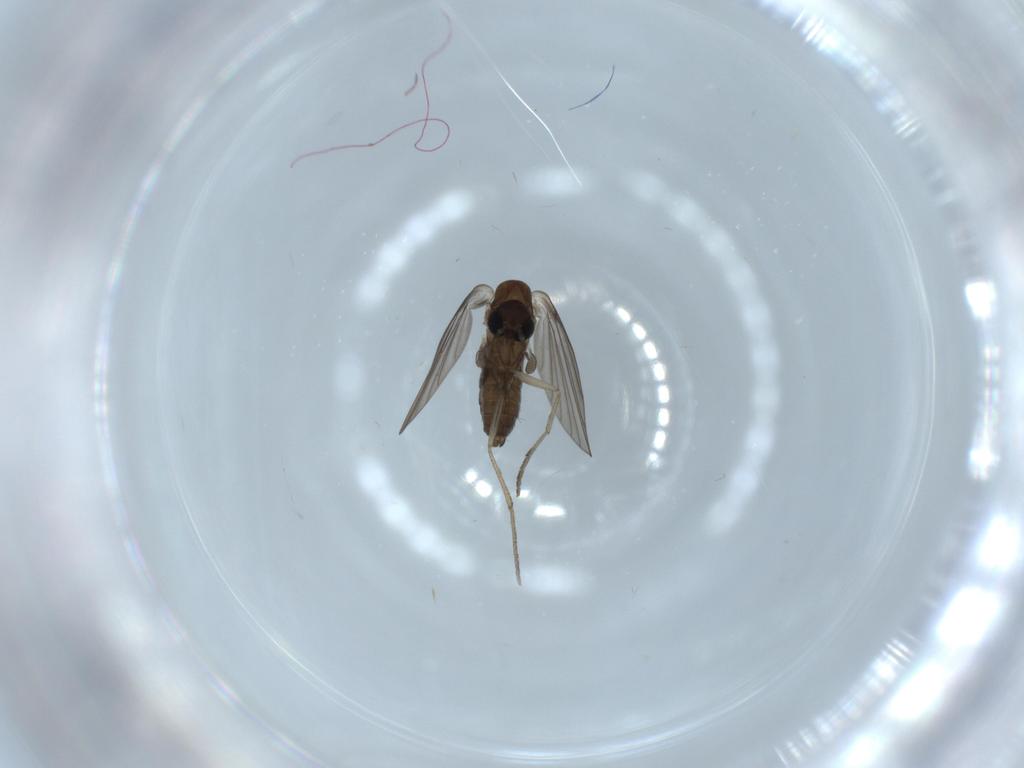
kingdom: Animalia
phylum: Arthropoda
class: Insecta
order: Diptera
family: Psychodidae
